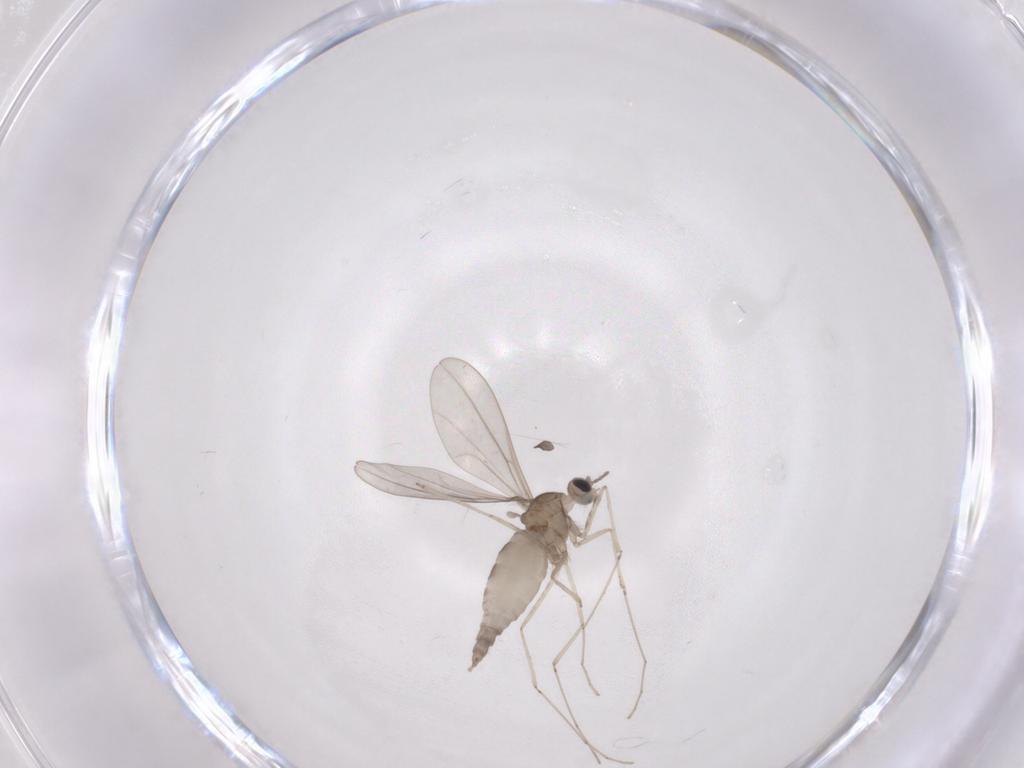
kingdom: Animalia
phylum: Arthropoda
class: Insecta
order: Diptera
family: Cecidomyiidae
